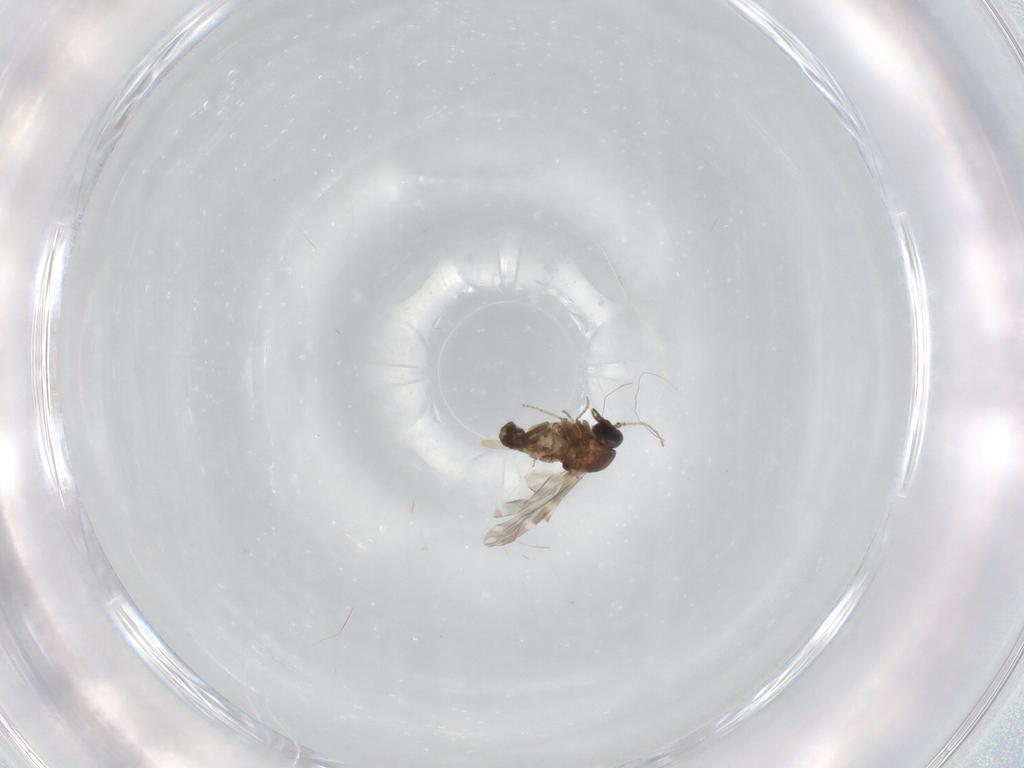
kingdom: Animalia
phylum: Arthropoda
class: Insecta
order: Diptera
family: Ceratopogonidae
